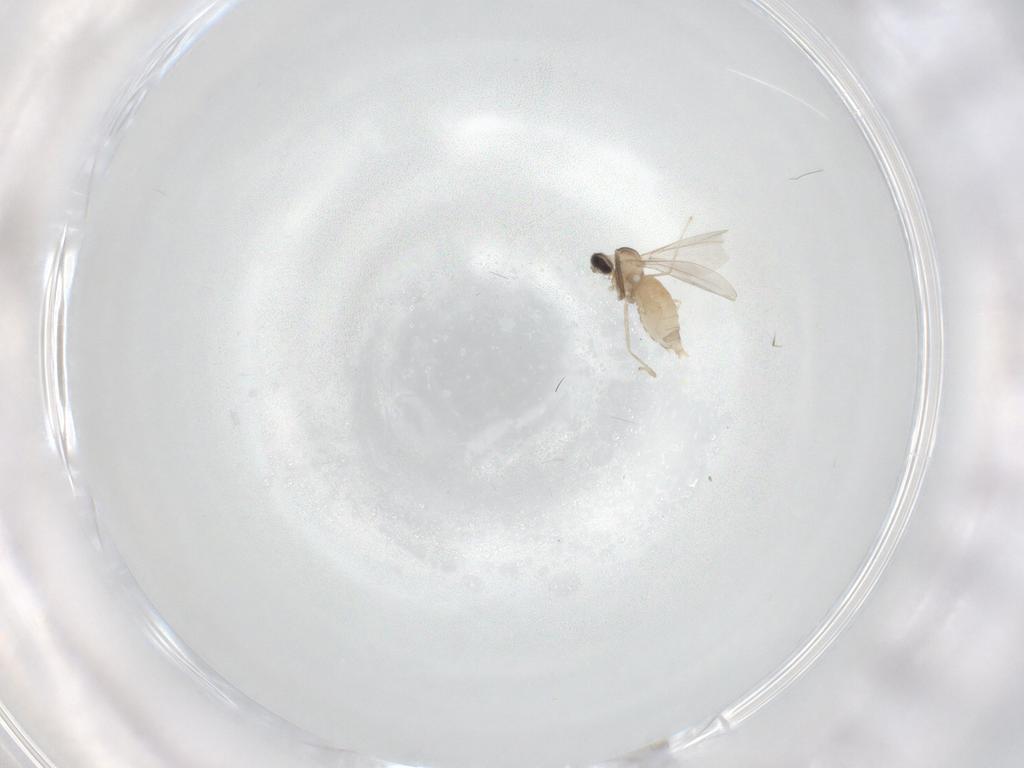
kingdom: Animalia
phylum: Arthropoda
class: Insecta
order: Diptera
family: Cecidomyiidae
